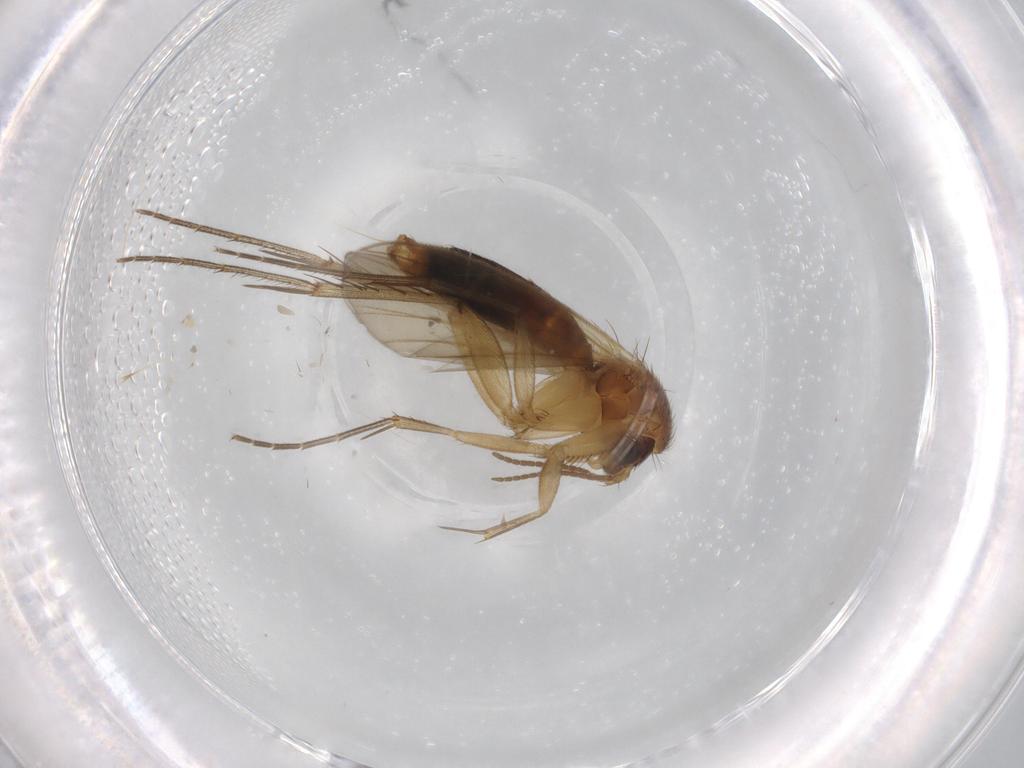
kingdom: Animalia
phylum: Arthropoda
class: Insecta
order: Diptera
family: Mycetophilidae
